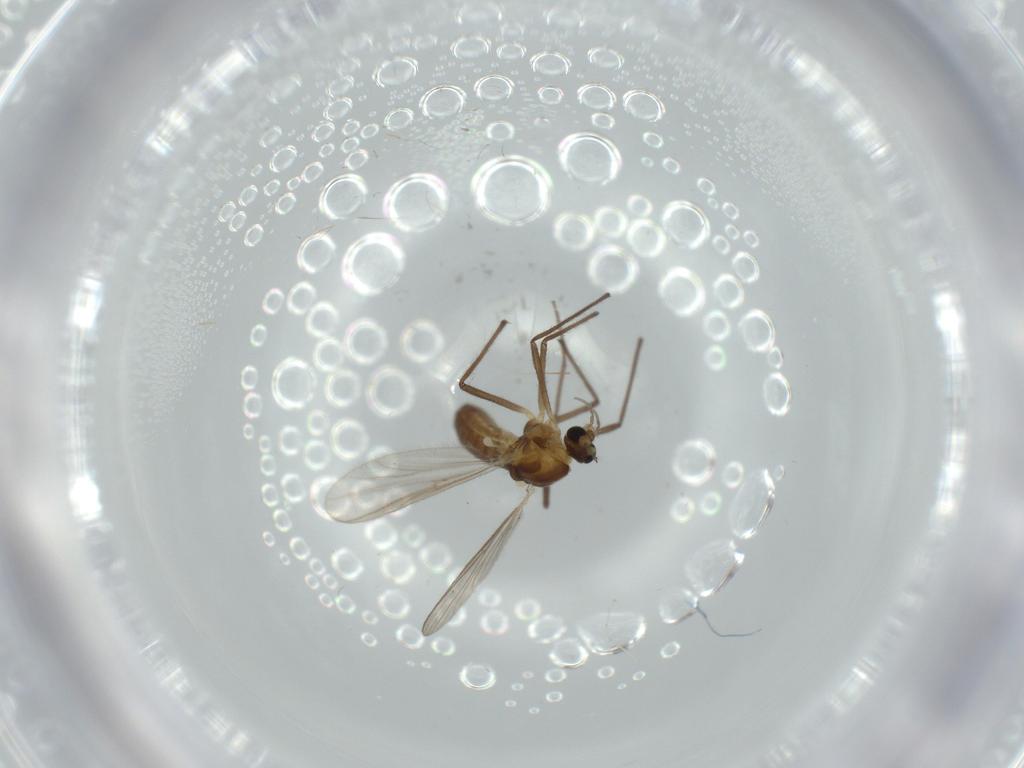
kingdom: Animalia
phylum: Arthropoda
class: Insecta
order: Diptera
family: Chironomidae
